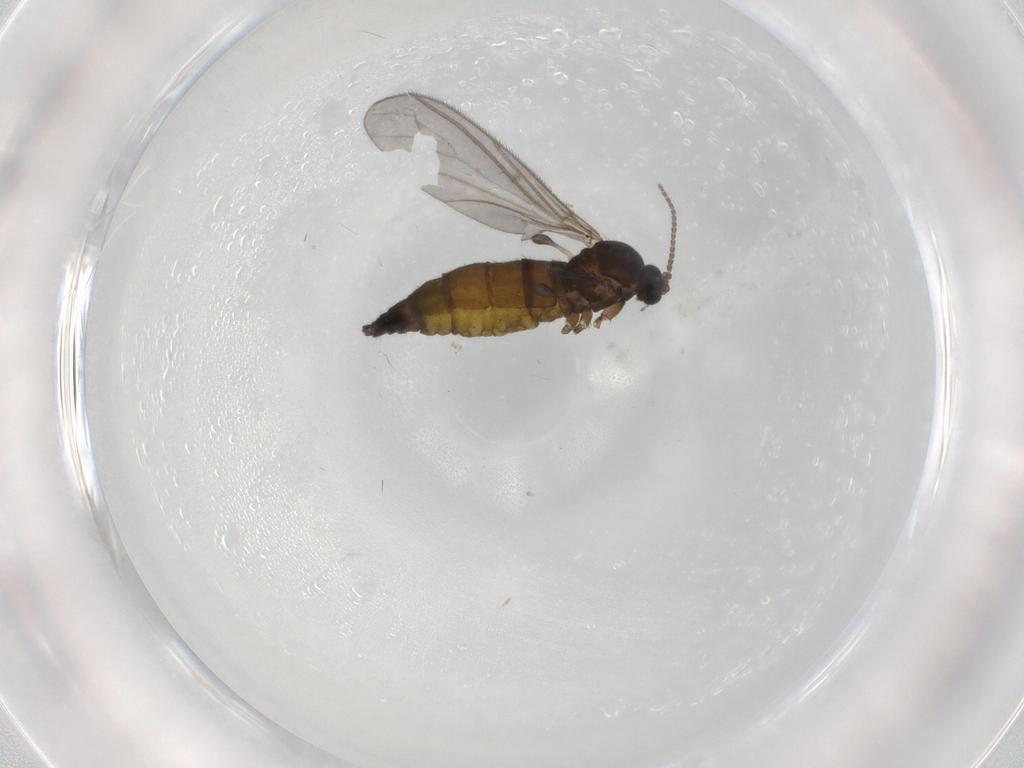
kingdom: Animalia
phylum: Arthropoda
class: Insecta
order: Diptera
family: Sciaridae
